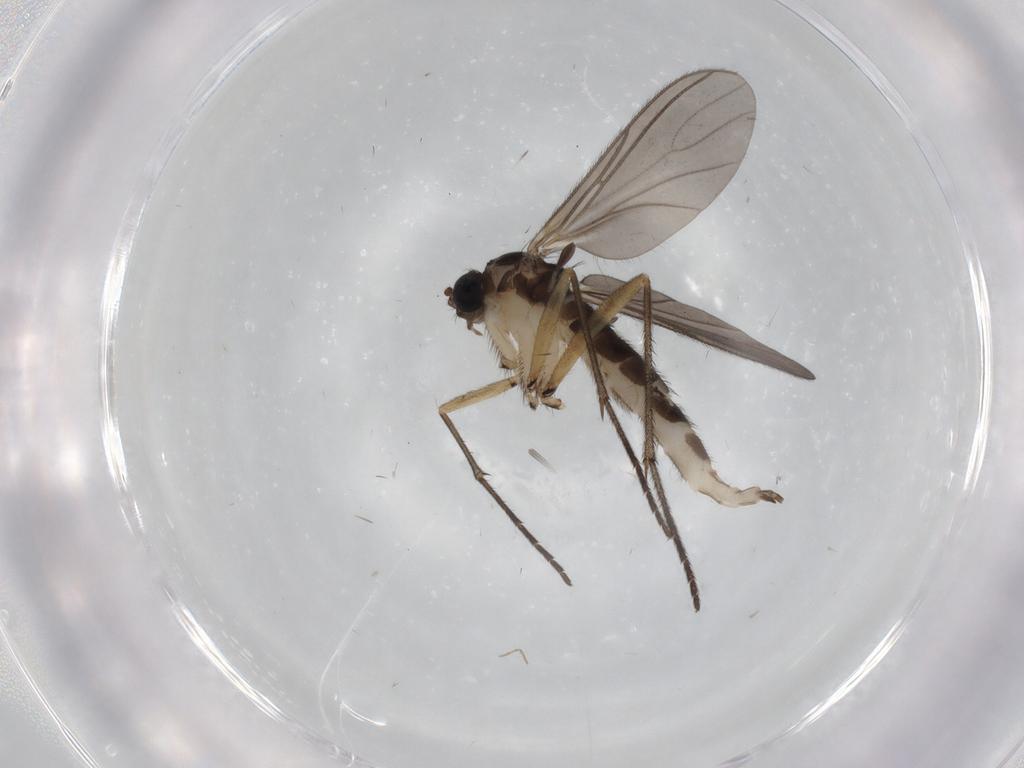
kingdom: Animalia
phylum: Arthropoda
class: Insecta
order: Diptera
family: Sciaridae
